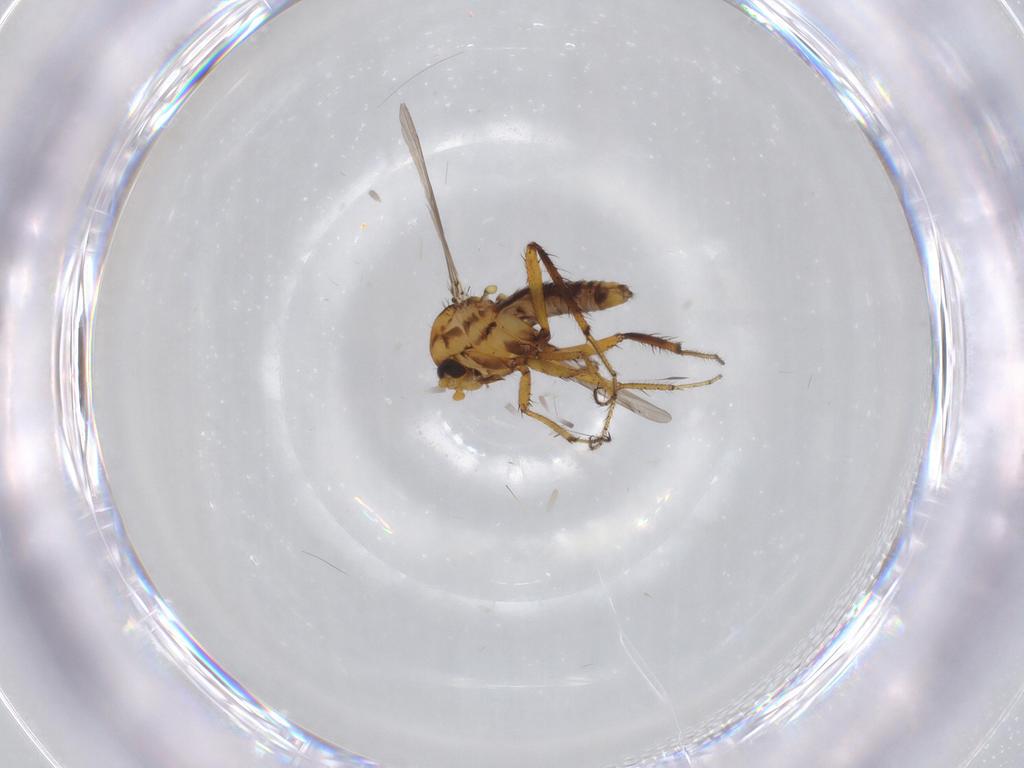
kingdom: Animalia
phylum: Arthropoda
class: Insecta
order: Diptera
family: Ceratopogonidae
